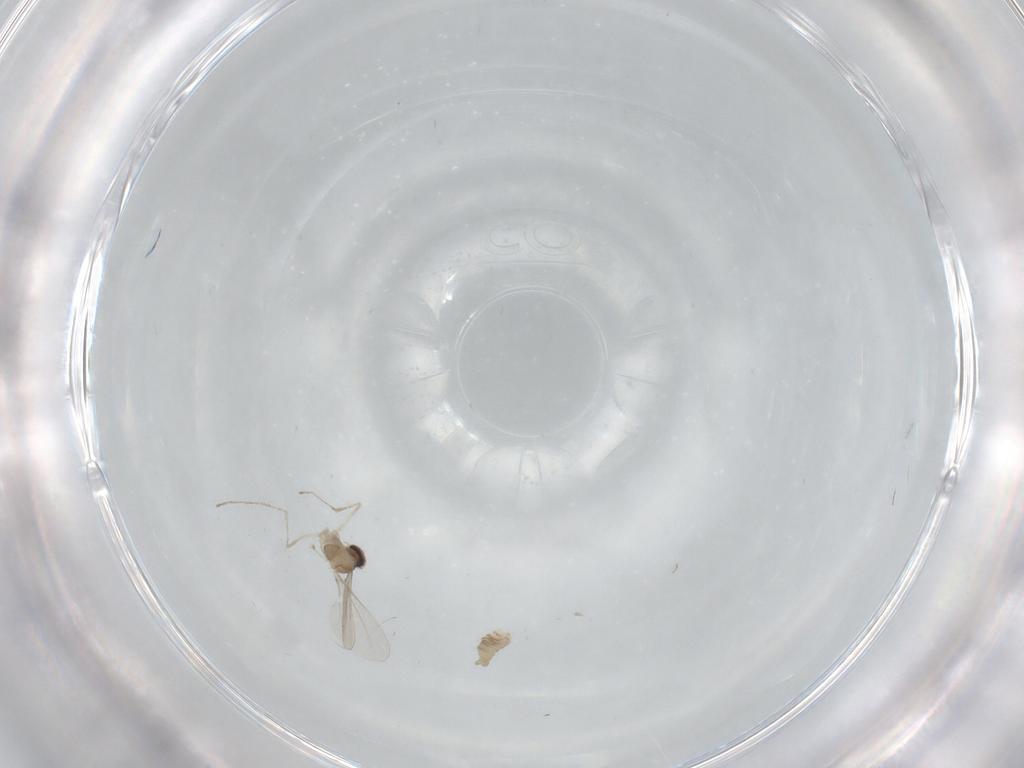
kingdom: Animalia
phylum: Arthropoda
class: Insecta
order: Diptera
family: Cecidomyiidae
